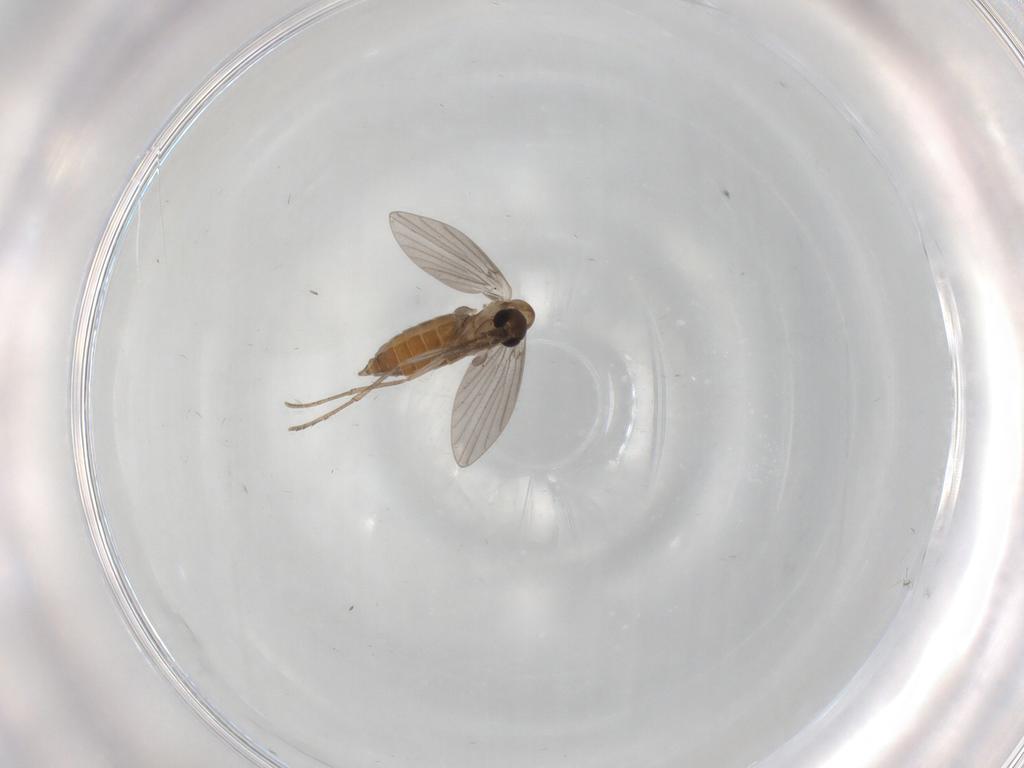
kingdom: Animalia
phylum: Arthropoda
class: Insecta
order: Diptera
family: Psychodidae
